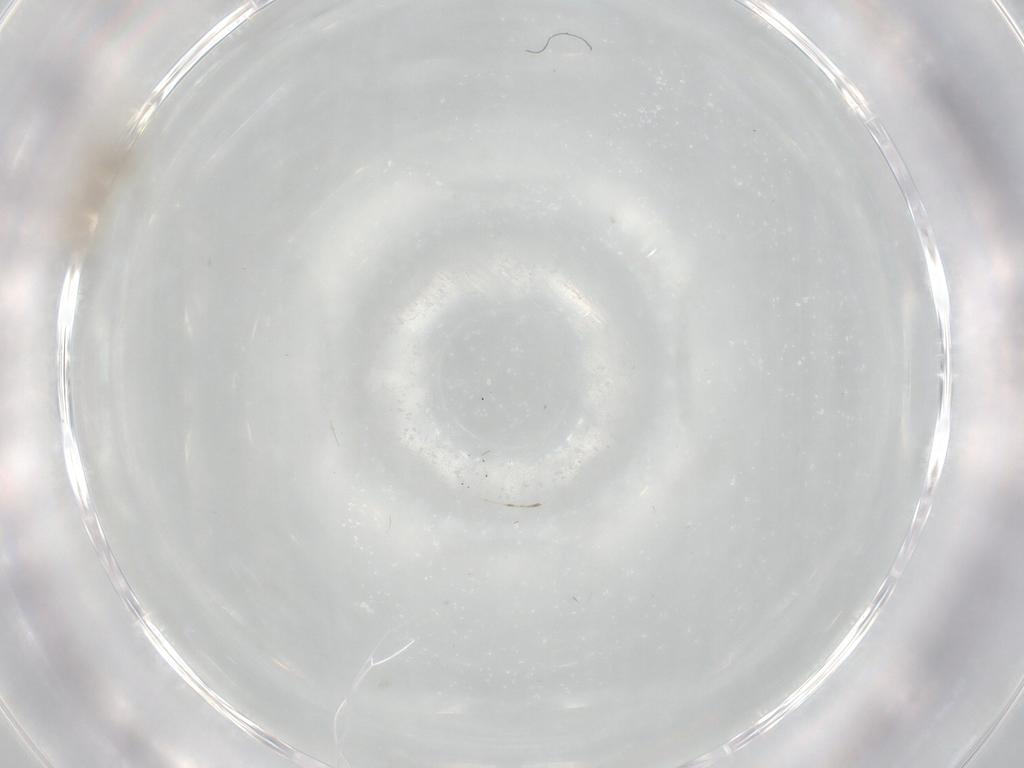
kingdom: Animalia
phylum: Arthropoda
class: Insecta
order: Diptera
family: Cecidomyiidae
